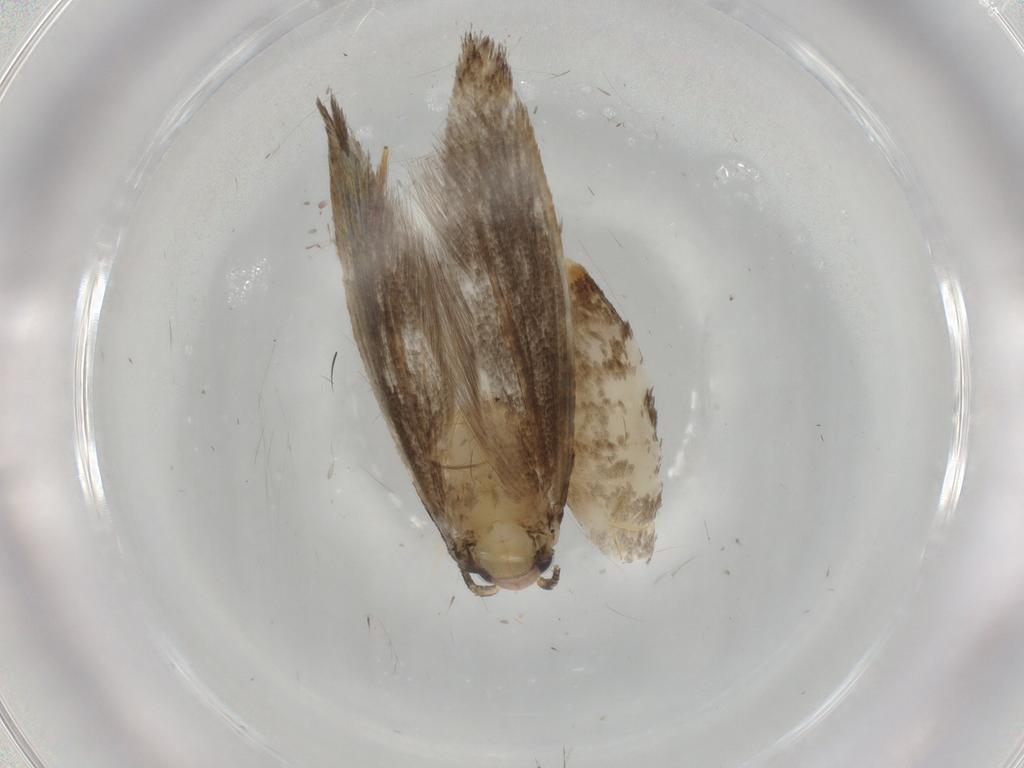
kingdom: Animalia
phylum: Arthropoda
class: Insecta
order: Lepidoptera
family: Tineidae
